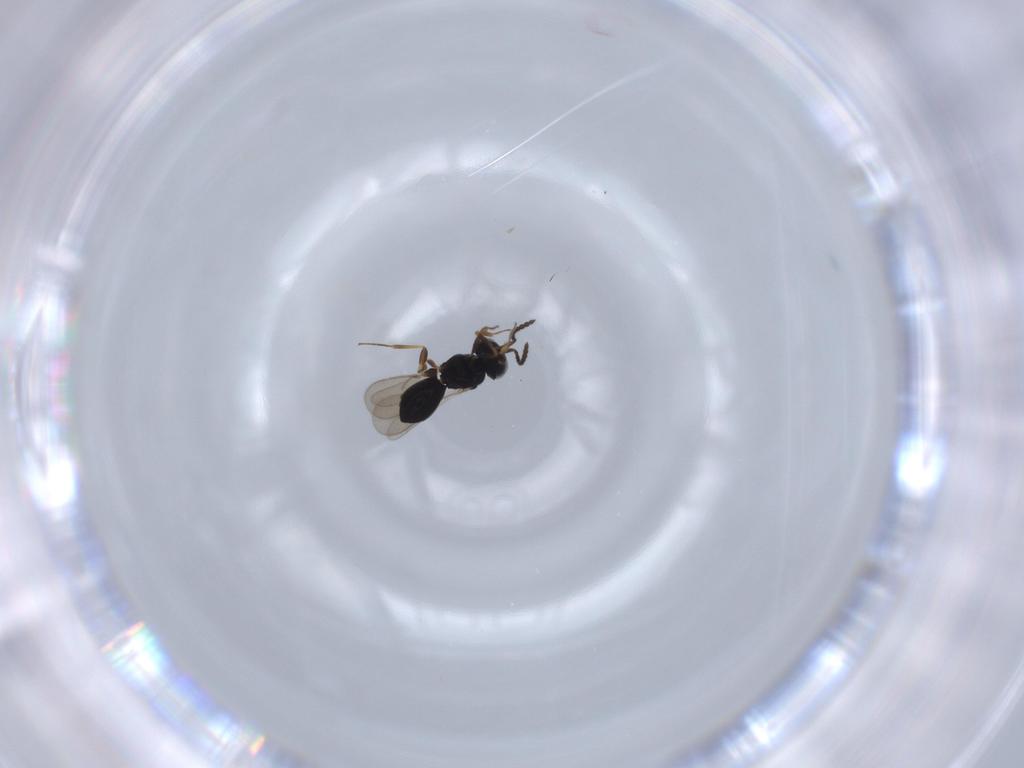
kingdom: Animalia
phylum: Arthropoda
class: Insecta
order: Hymenoptera
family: Scelionidae
